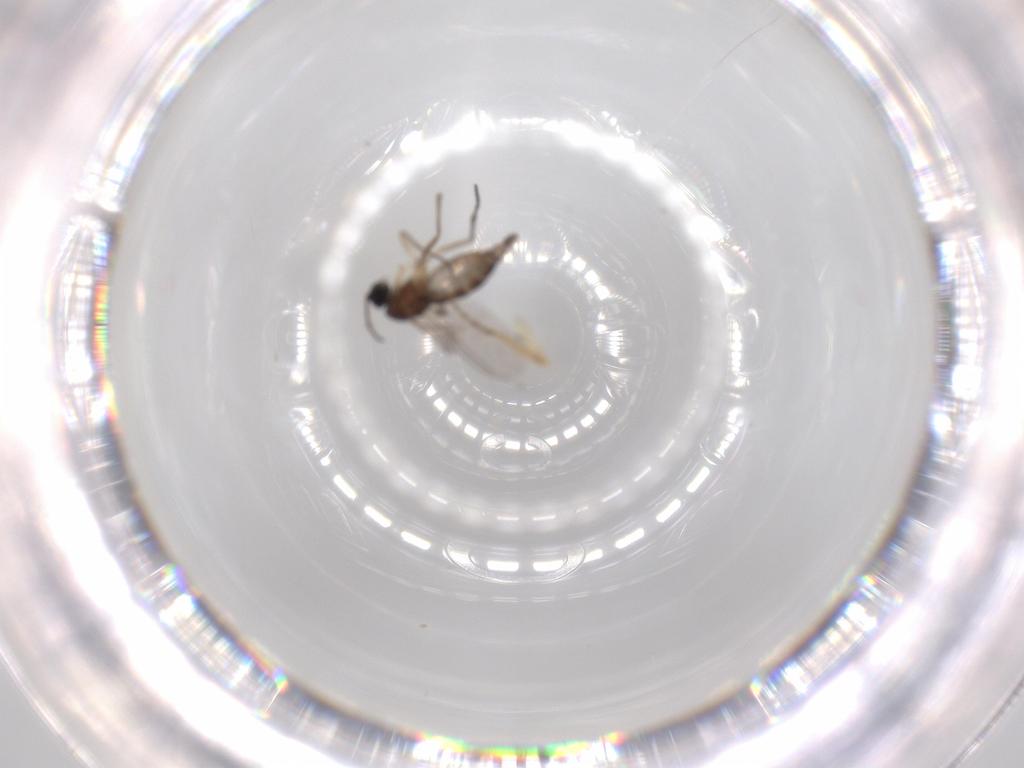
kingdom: Animalia
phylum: Arthropoda
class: Insecta
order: Diptera
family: Sciaridae
